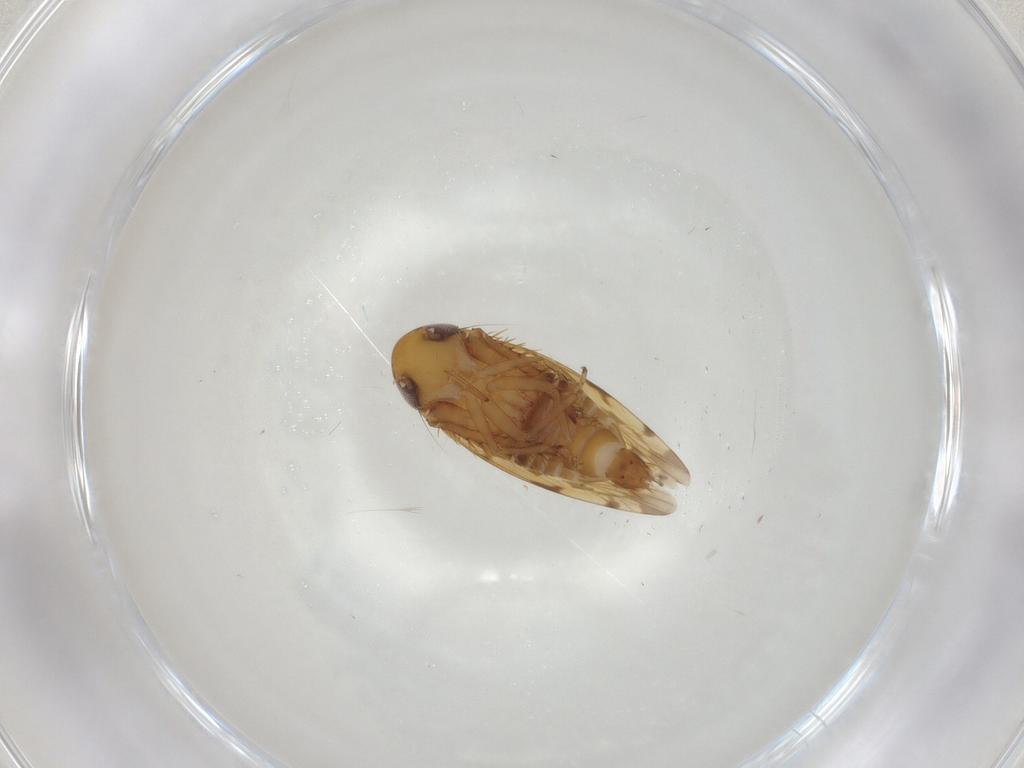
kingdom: Animalia
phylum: Arthropoda
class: Insecta
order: Hemiptera
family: Cicadellidae
